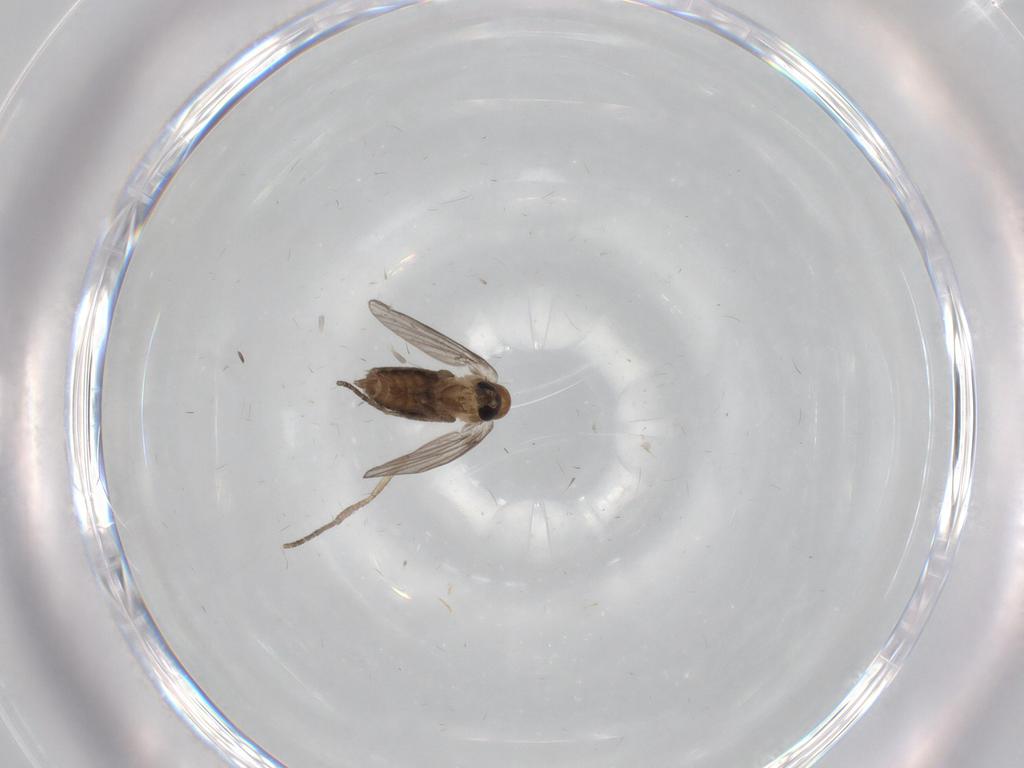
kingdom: Animalia
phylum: Arthropoda
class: Insecta
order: Diptera
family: Psychodidae
